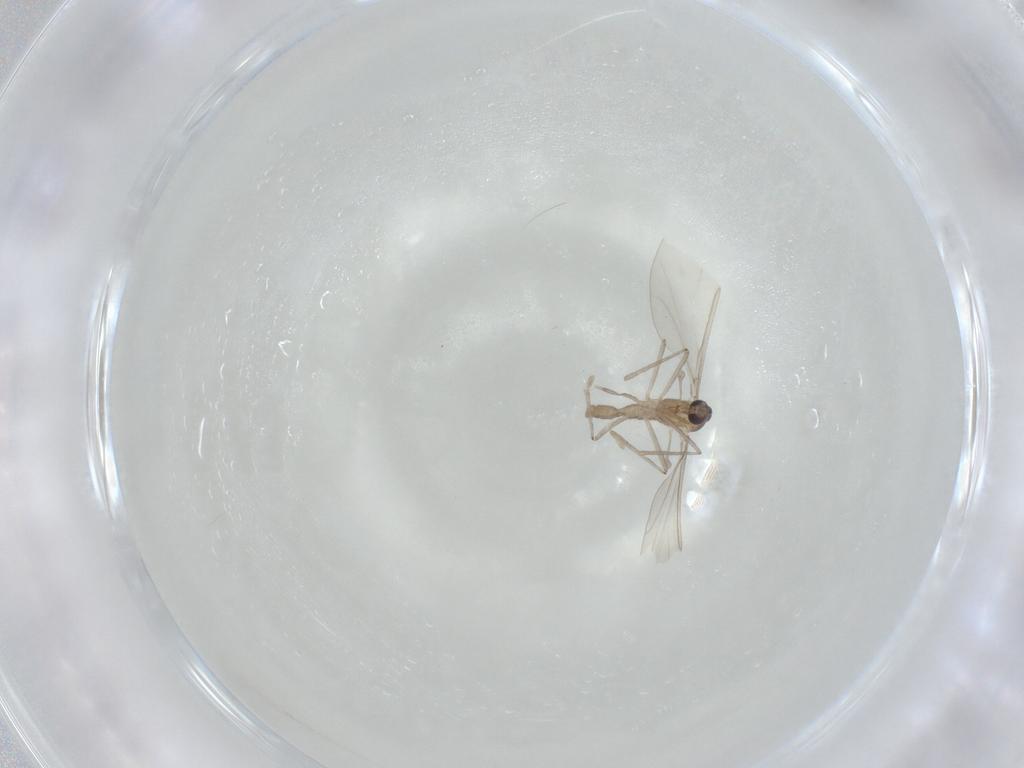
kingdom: Animalia
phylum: Arthropoda
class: Insecta
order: Diptera
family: Cecidomyiidae
